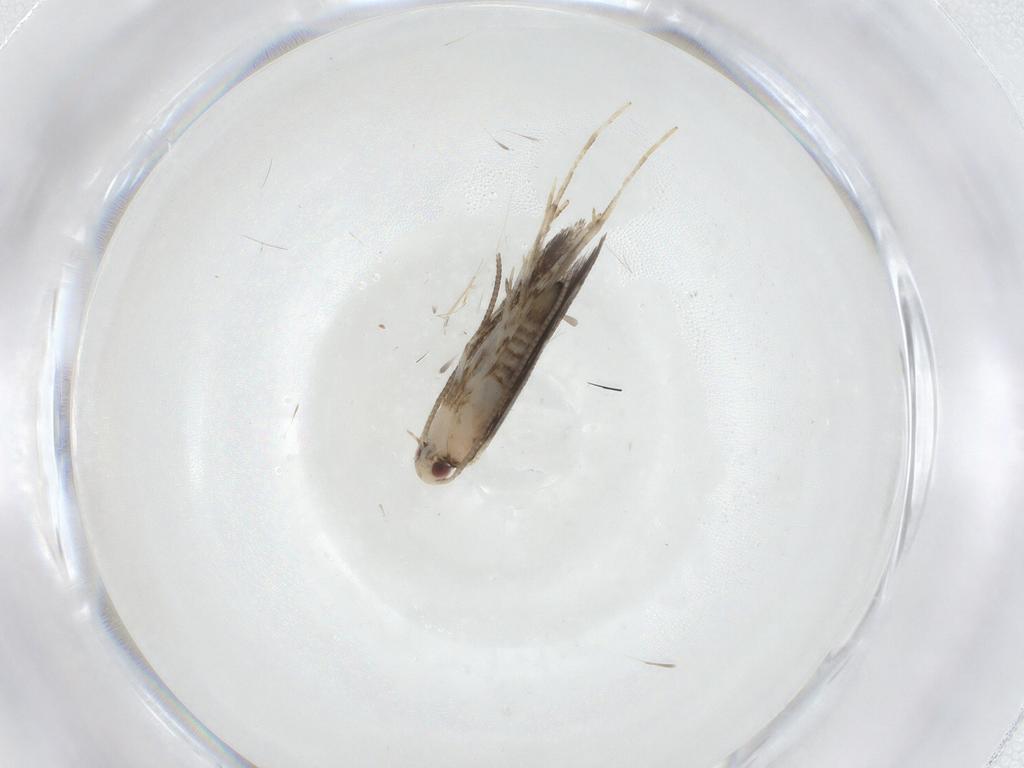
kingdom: Animalia
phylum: Arthropoda
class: Insecta
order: Lepidoptera
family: Gracillariidae
